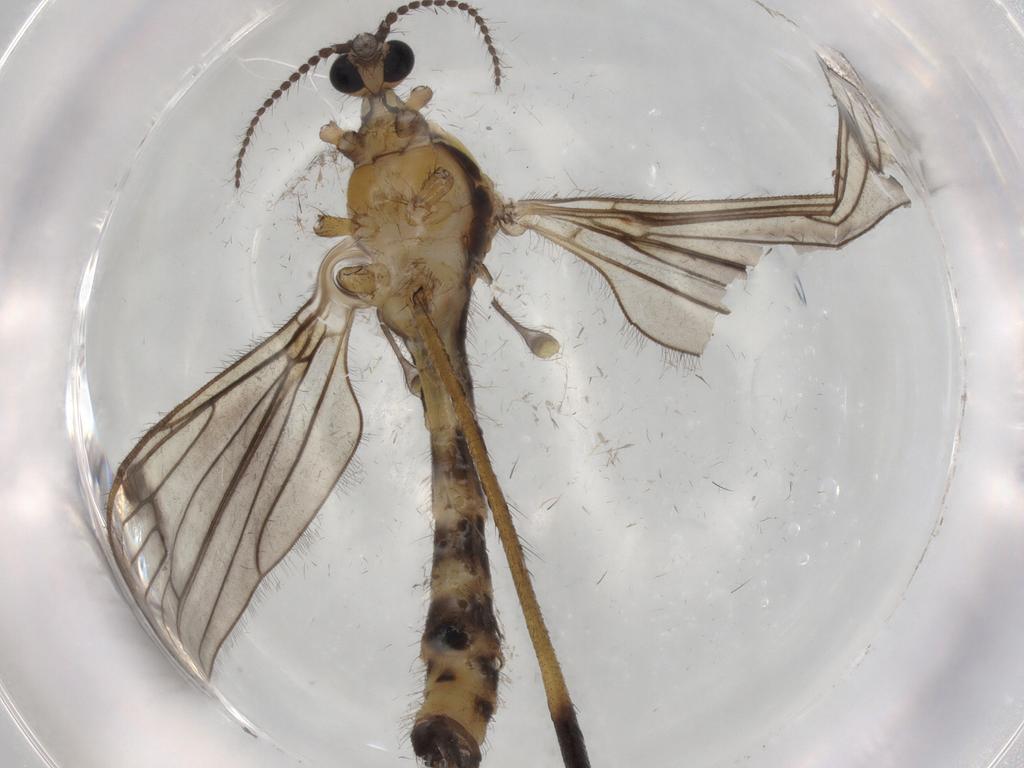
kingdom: Animalia
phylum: Arthropoda
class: Insecta
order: Diptera
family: Limoniidae
